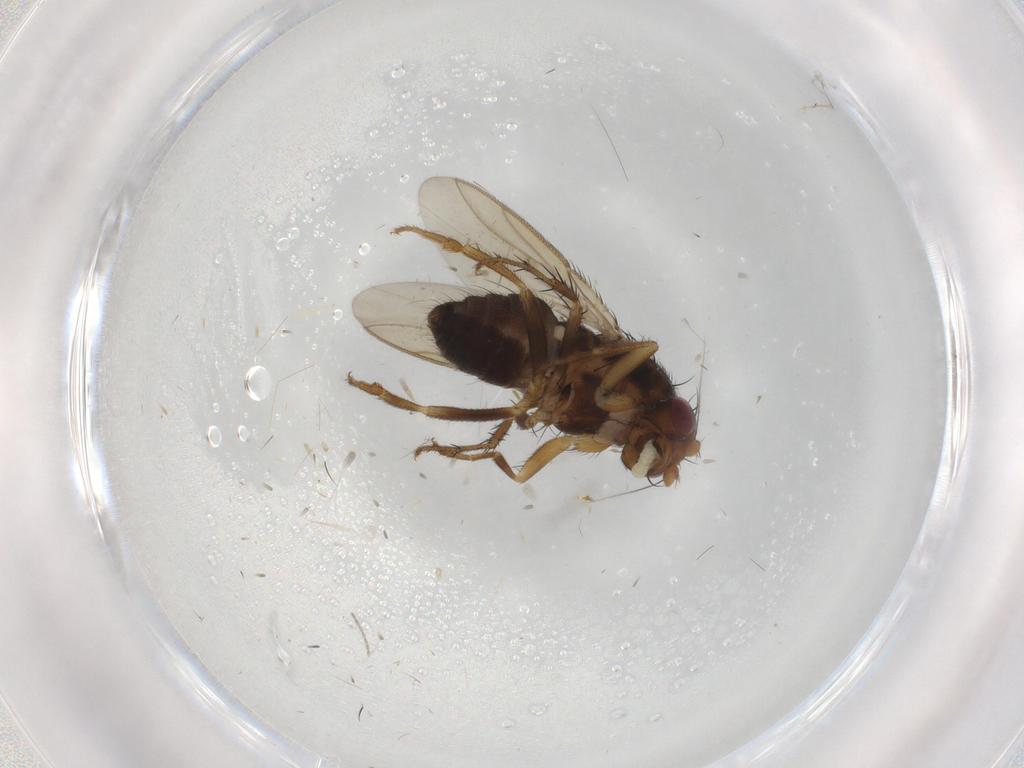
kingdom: Animalia
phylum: Arthropoda
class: Insecta
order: Diptera
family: Sphaeroceridae
